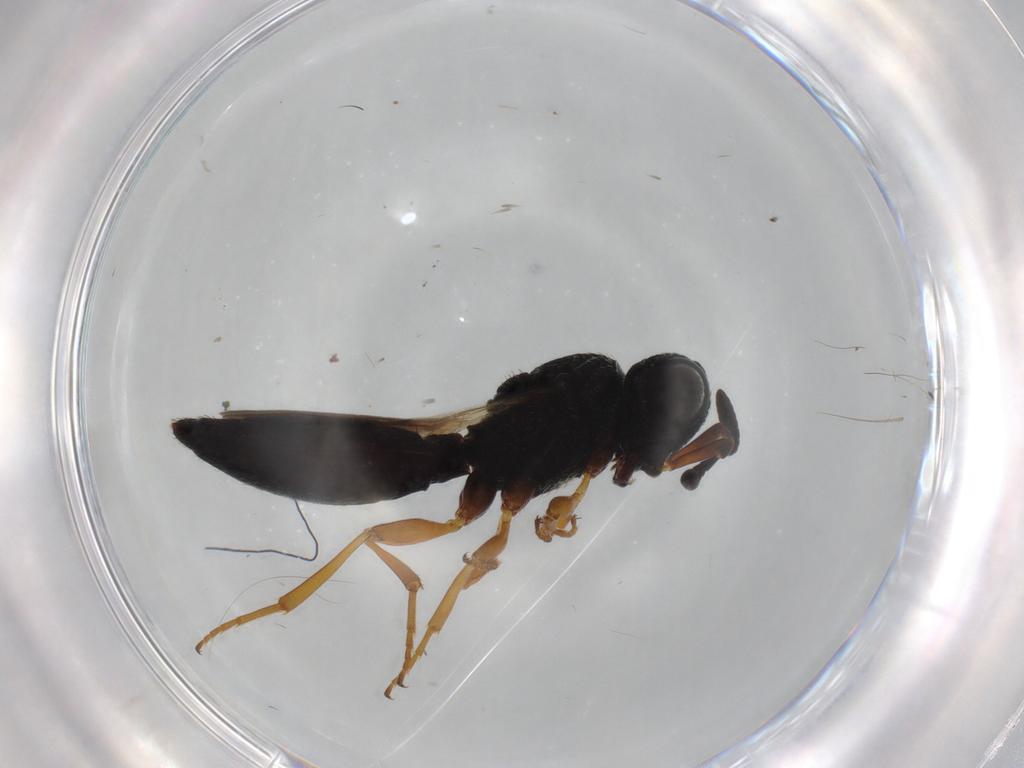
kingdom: Animalia
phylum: Arthropoda
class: Insecta
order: Hymenoptera
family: Scelionidae
